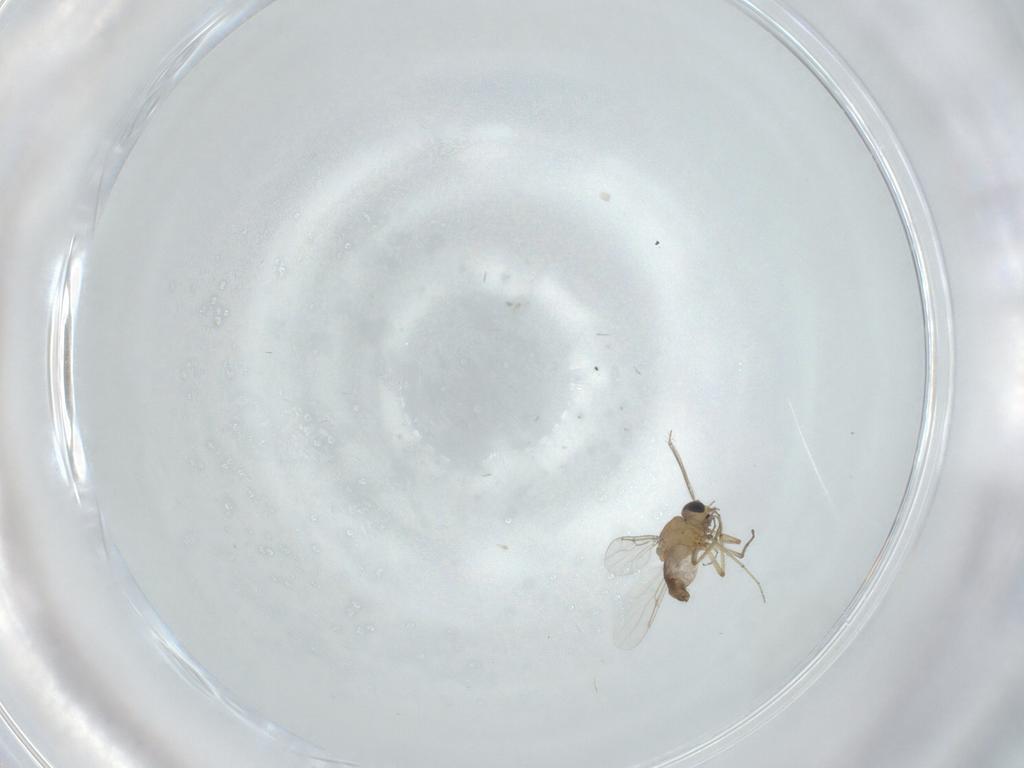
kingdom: Animalia
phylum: Arthropoda
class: Insecta
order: Diptera
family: Ceratopogonidae
